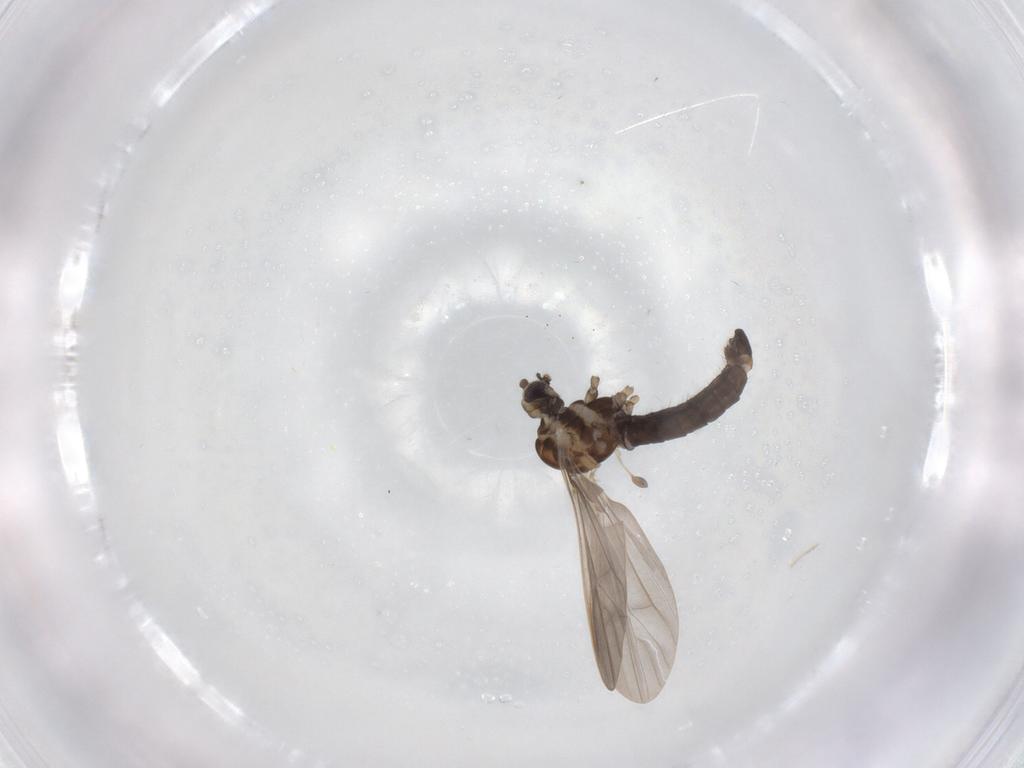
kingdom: Animalia
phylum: Arthropoda
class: Insecta
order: Diptera
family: Limoniidae
